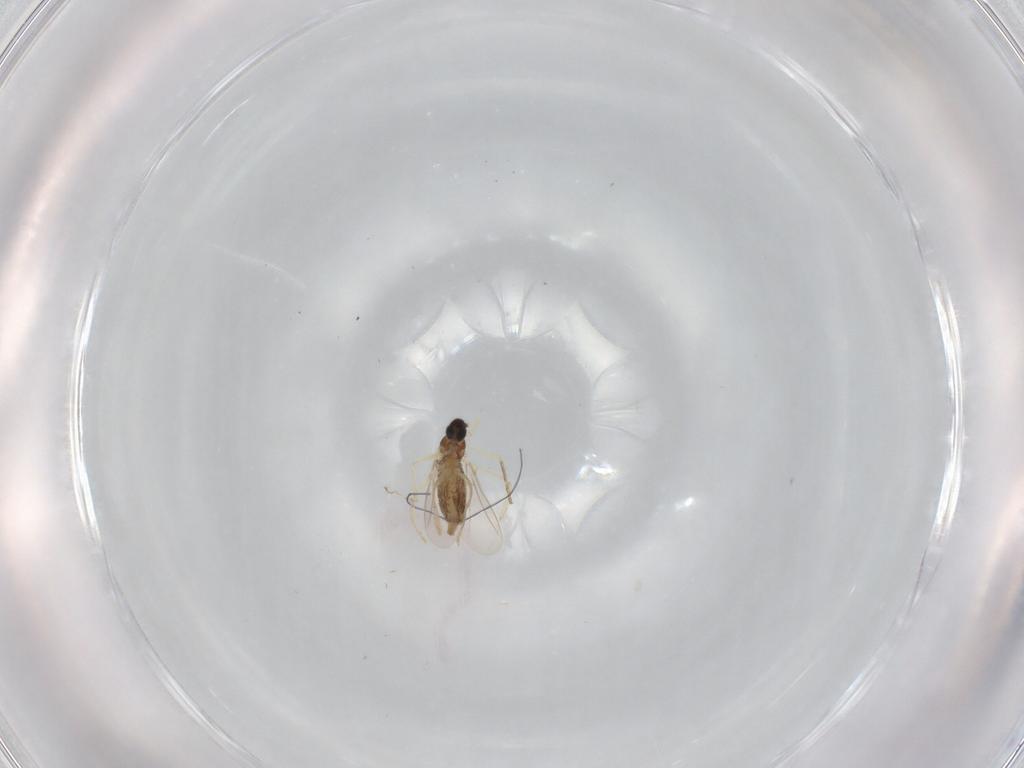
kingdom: Animalia
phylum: Arthropoda
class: Insecta
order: Diptera
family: Cecidomyiidae
